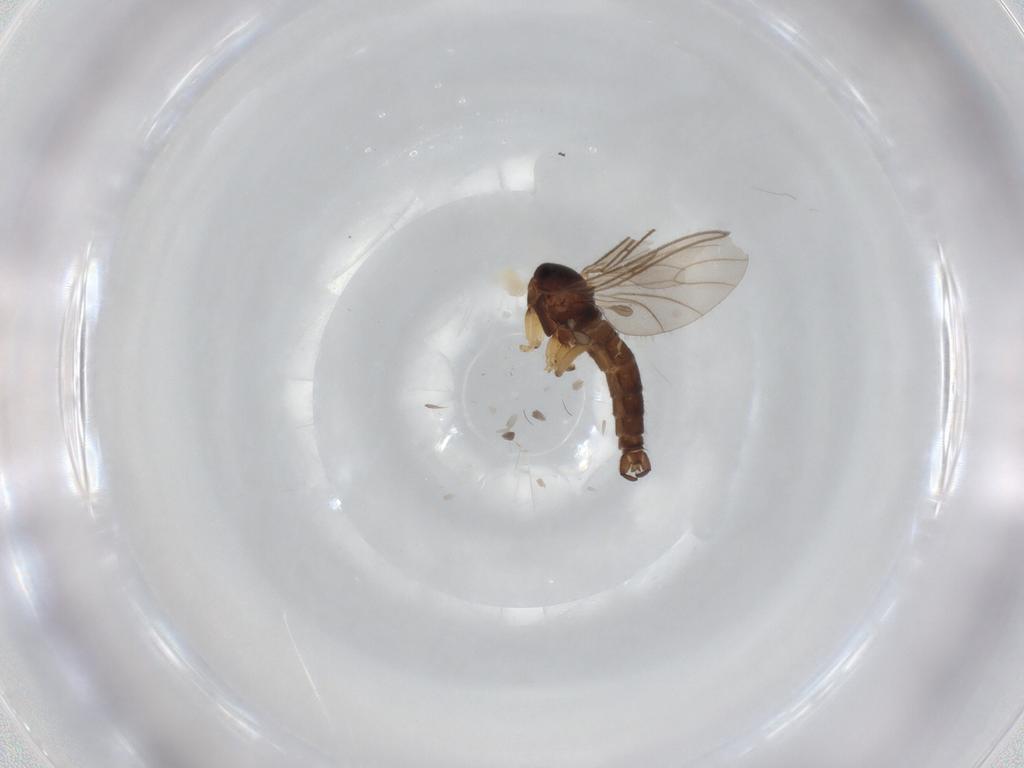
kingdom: Animalia
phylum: Arthropoda
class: Insecta
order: Diptera
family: Sciaridae
